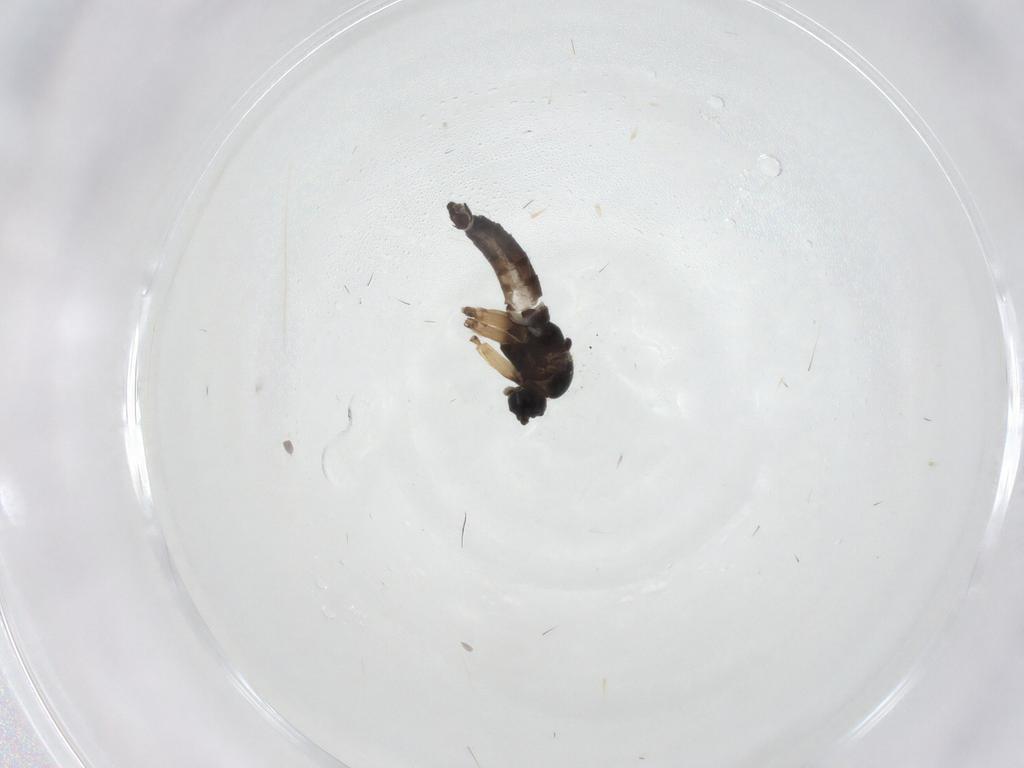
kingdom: Animalia
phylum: Arthropoda
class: Insecta
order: Diptera
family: Sciaridae
